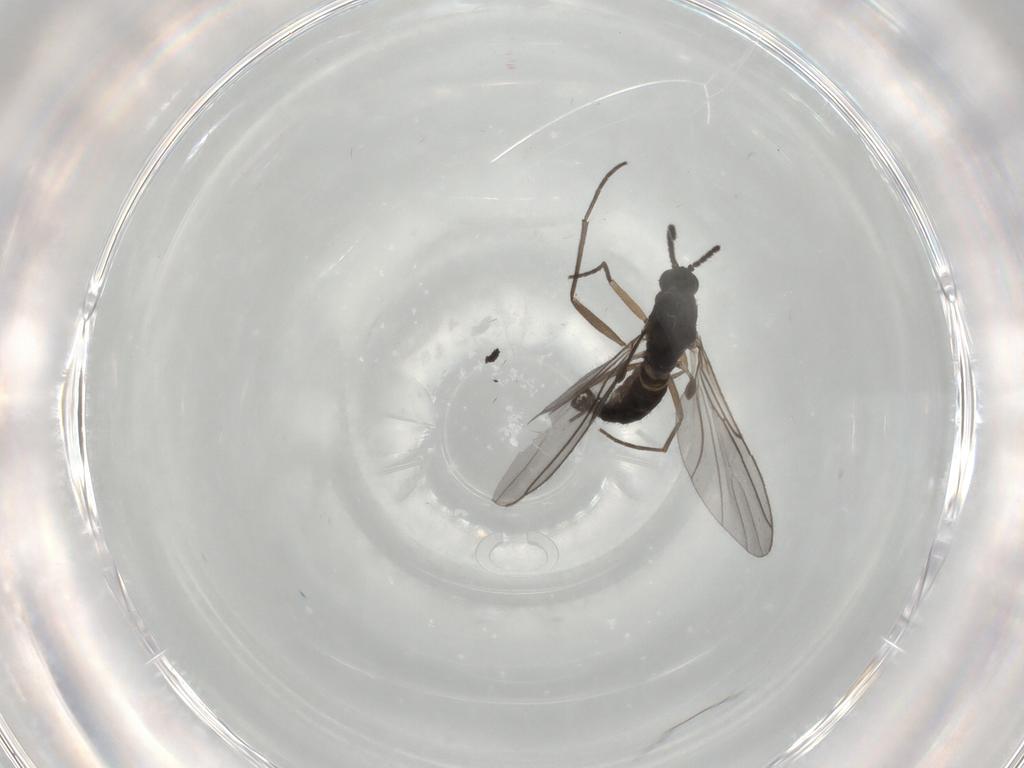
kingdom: Animalia
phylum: Arthropoda
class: Insecta
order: Diptera
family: Sciaridae
